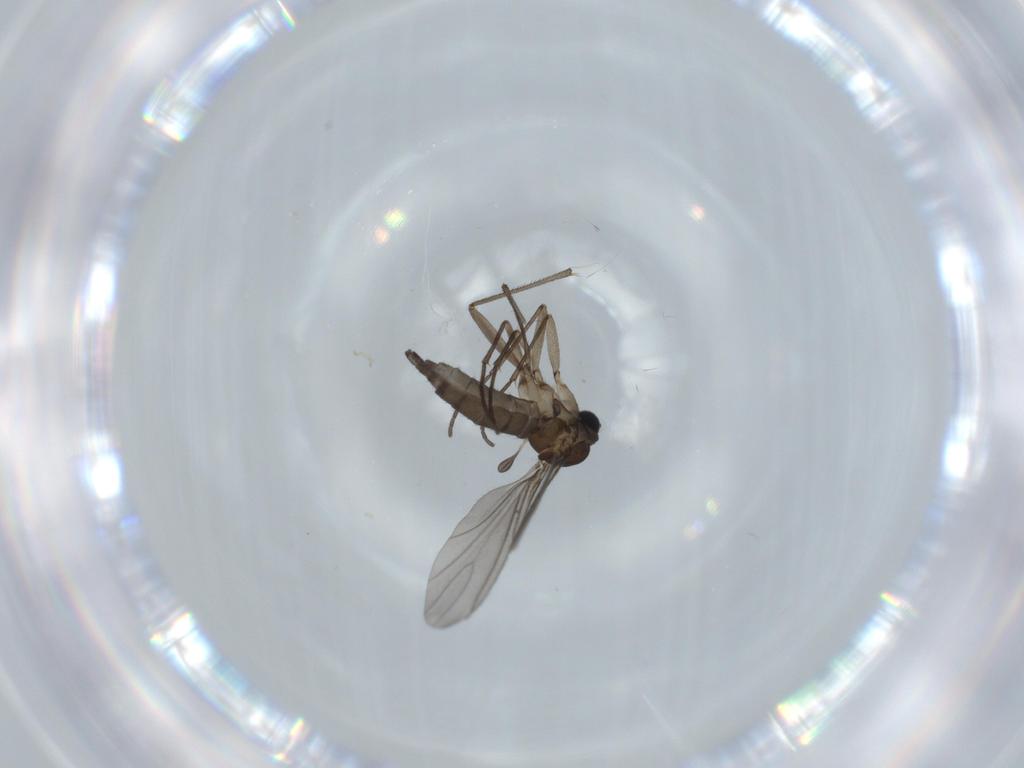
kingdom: Animalia
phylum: Arthropoda
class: Insecta
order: Diptera
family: Sciaridae
